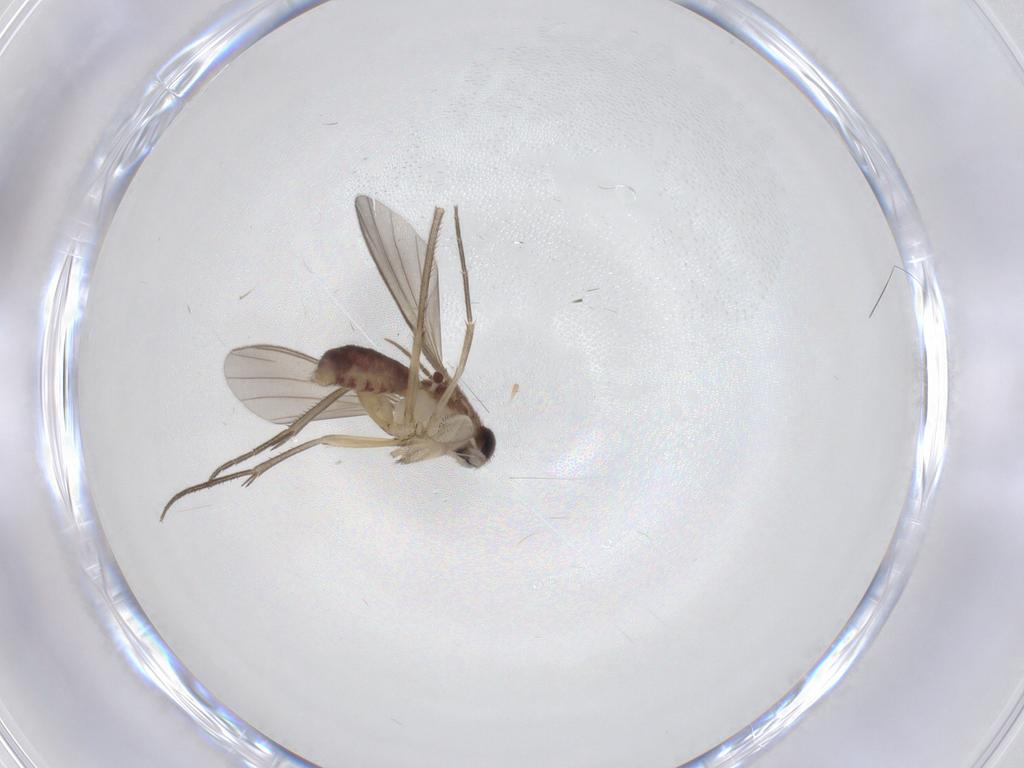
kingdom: Animalia
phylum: Arthropoda
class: Insecta
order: Diptera
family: Mycetophilidae
